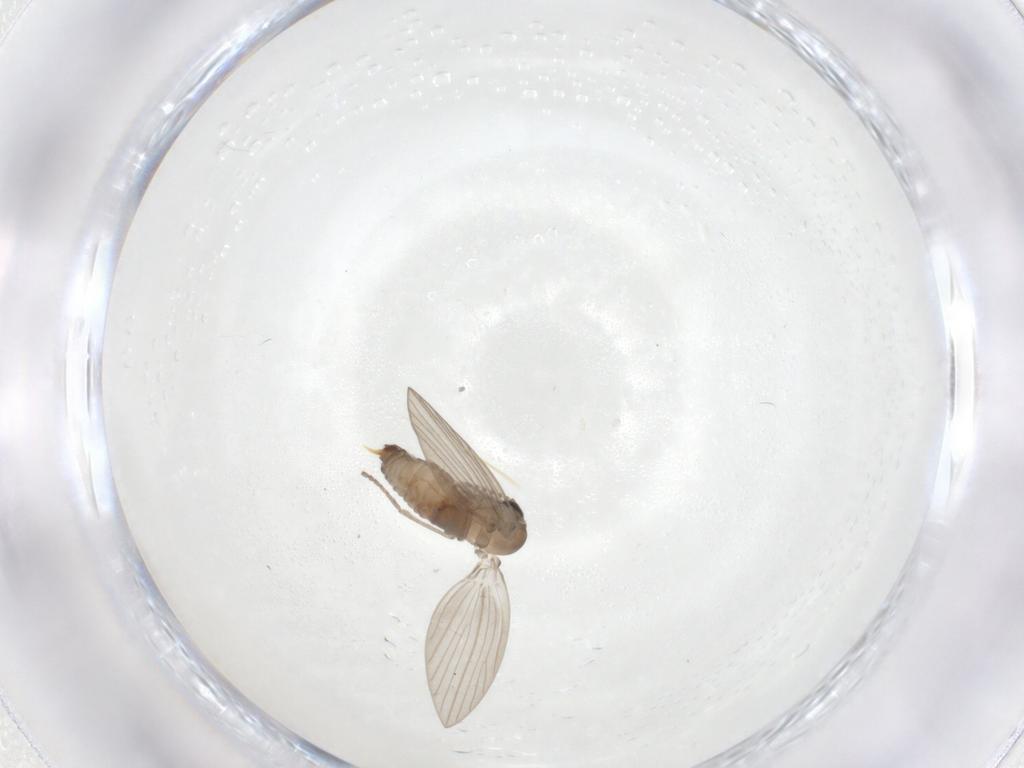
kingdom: Animalia
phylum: Arthropoda
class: Insecta
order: Diptera
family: Psychodidae
